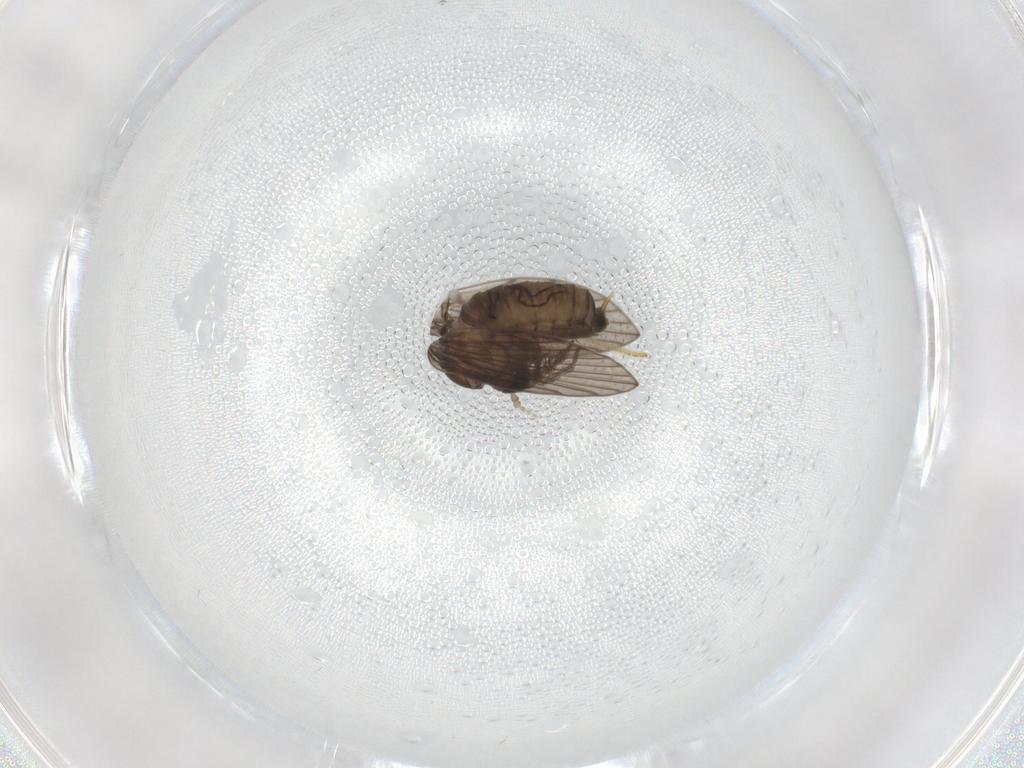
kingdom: Animalia
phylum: Arthropoda
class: Insecta
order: Diptera
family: Psychodidae
